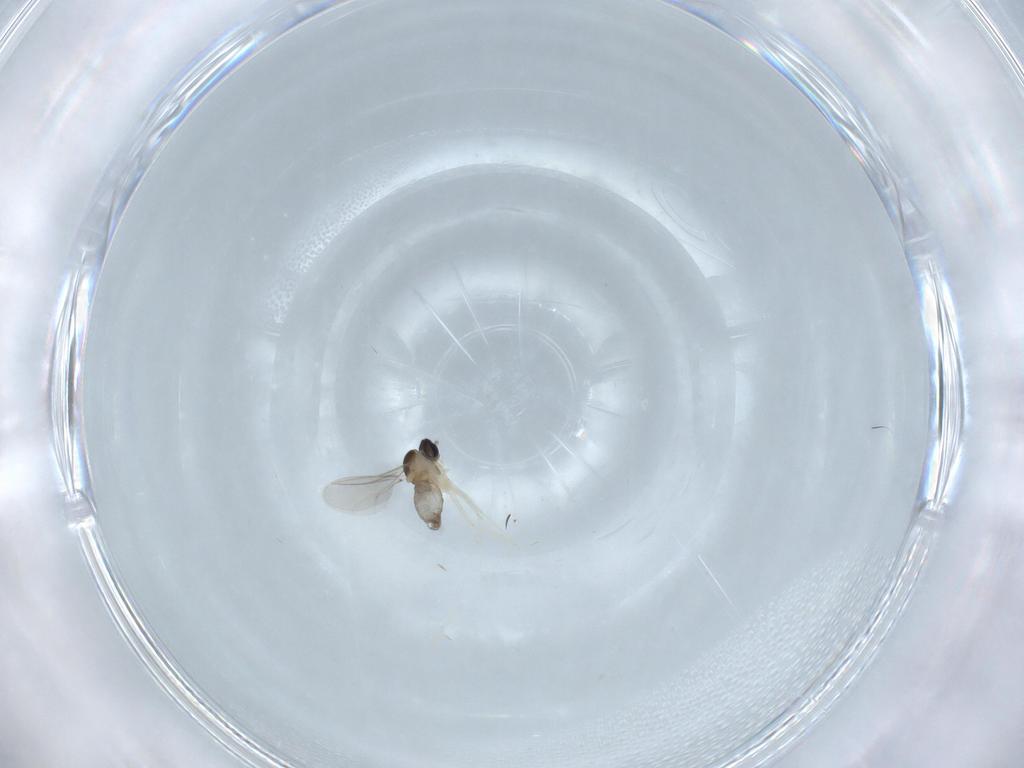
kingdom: Animalia
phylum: Arthropoda
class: Insecta
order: Diptera
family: Cecidomyiidae
